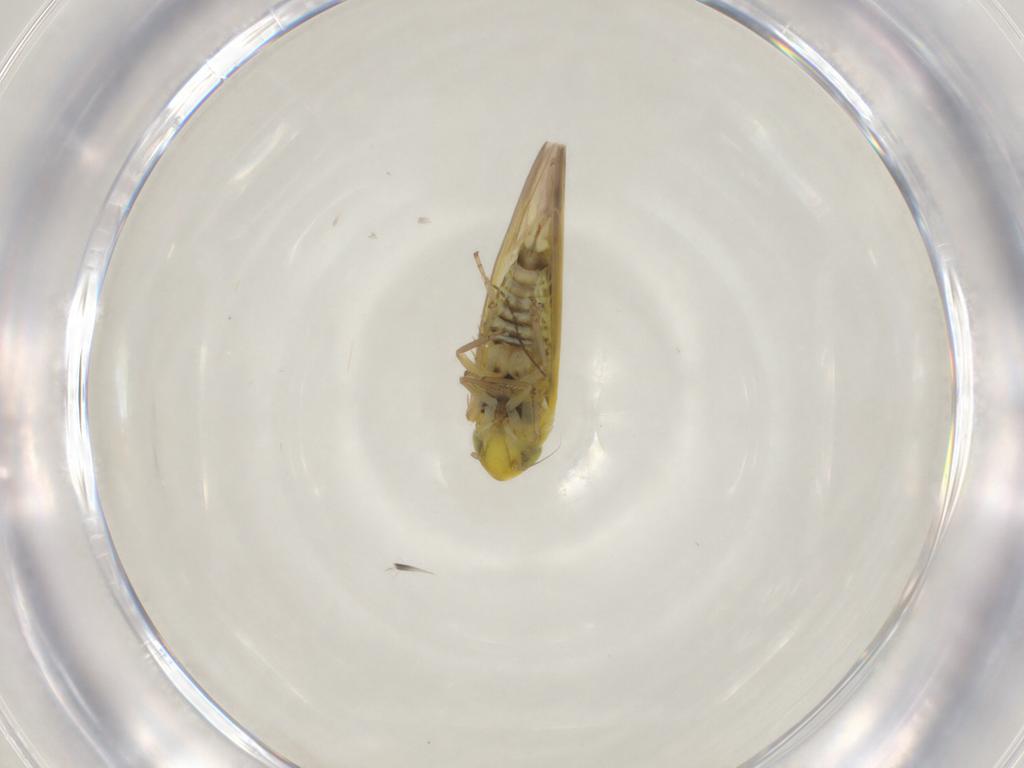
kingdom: Animalia
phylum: Arthropoda
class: Insecta
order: Hemiptera
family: Cicadellidae
